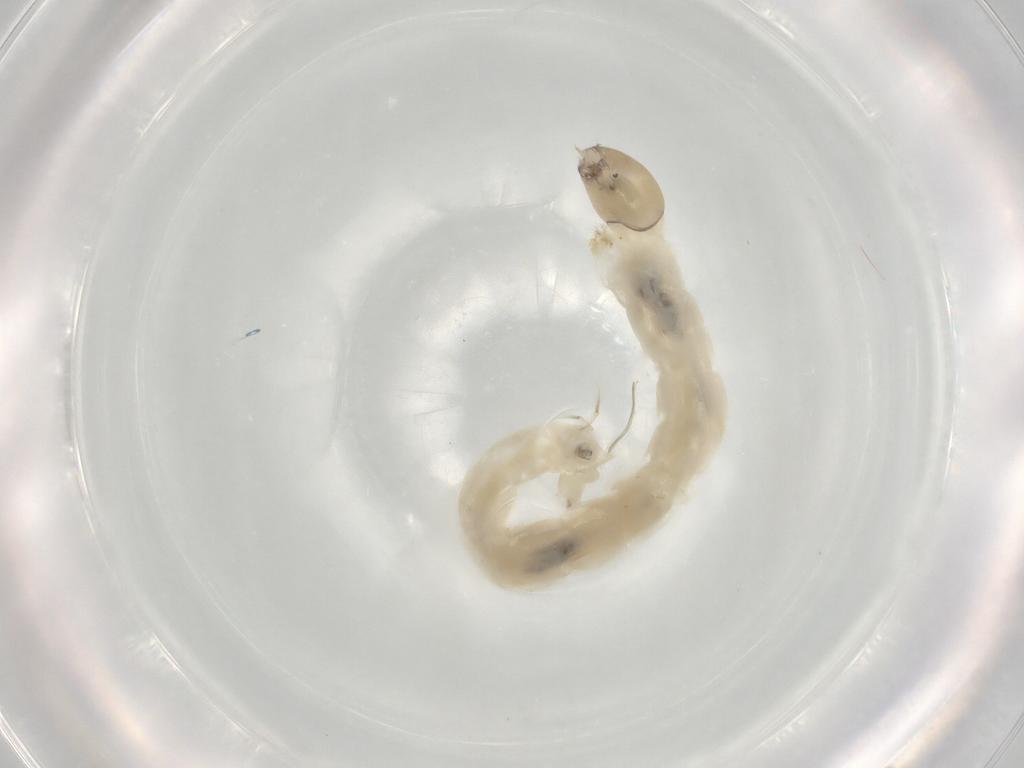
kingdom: Animalia
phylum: Arthropoda
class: Insecta
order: Diptera
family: Chironomidae
